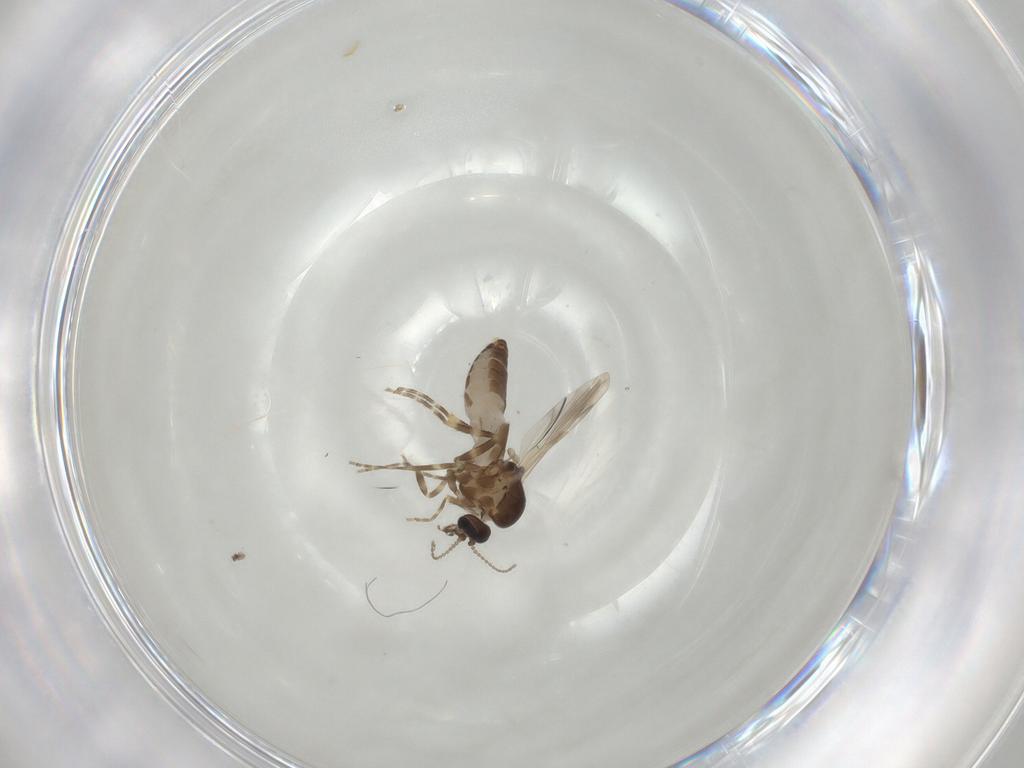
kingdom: Animalia
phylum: Arthropoda
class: Insecta
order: Diptera
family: Ceratopogonidae
